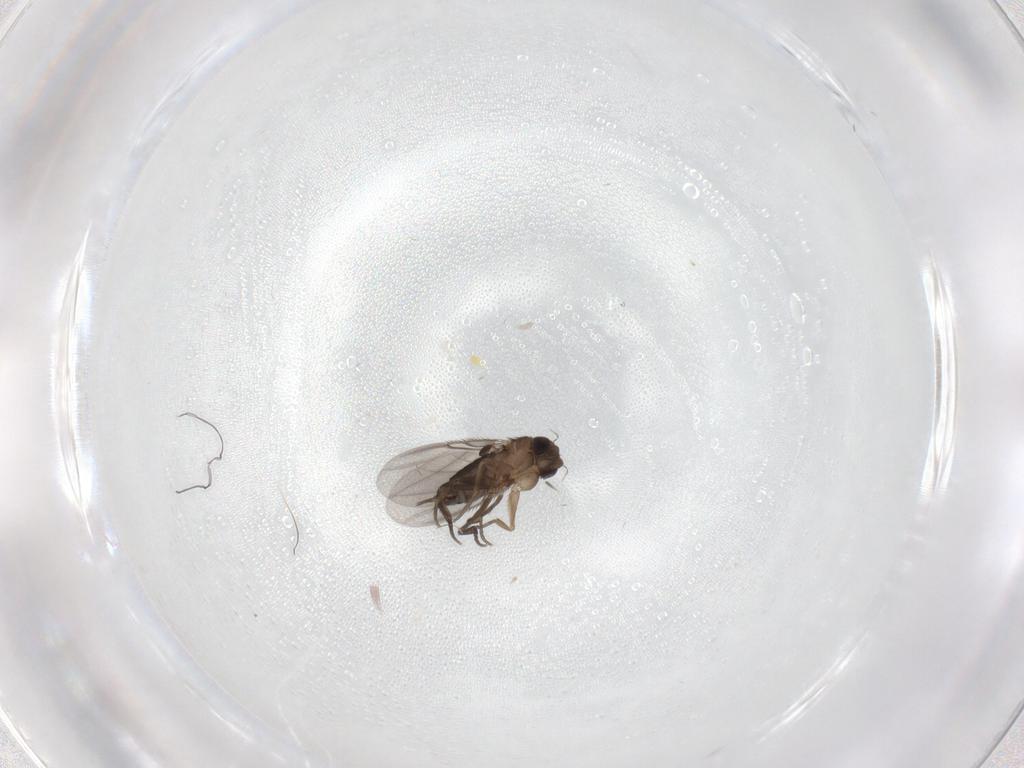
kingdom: Animalia
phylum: Arthropoda
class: Insecta
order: Diptera
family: Phoridae
